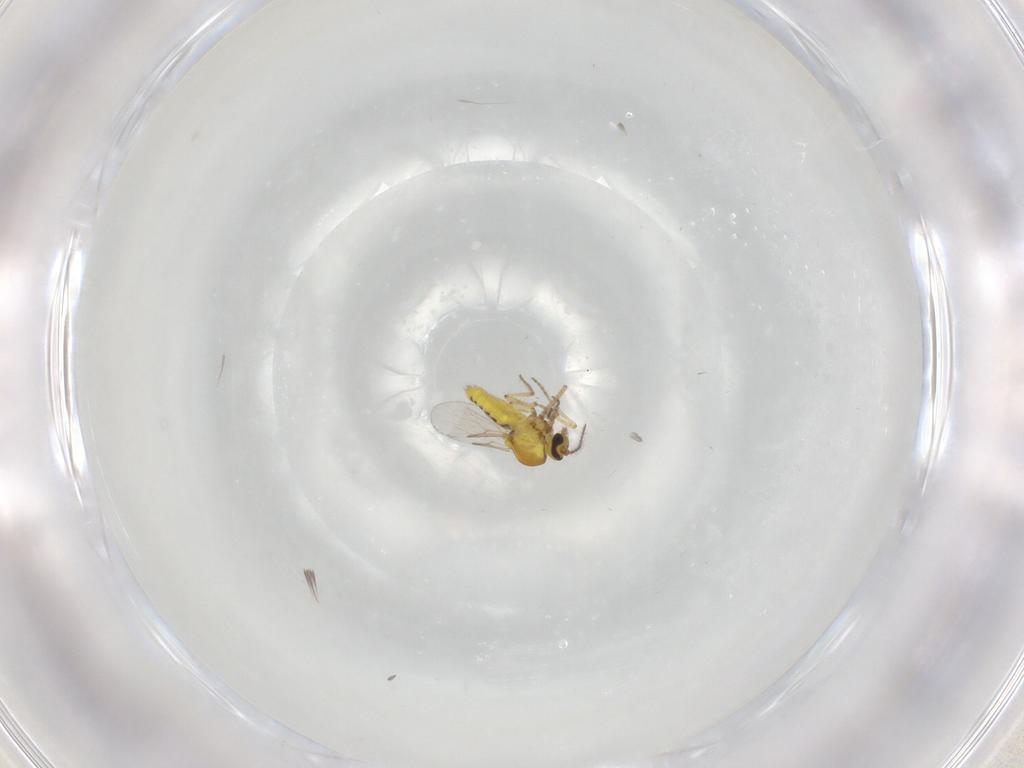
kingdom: Animalia
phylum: Arthropoda
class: Insecta
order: Diptera
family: Ceratopogonidae
